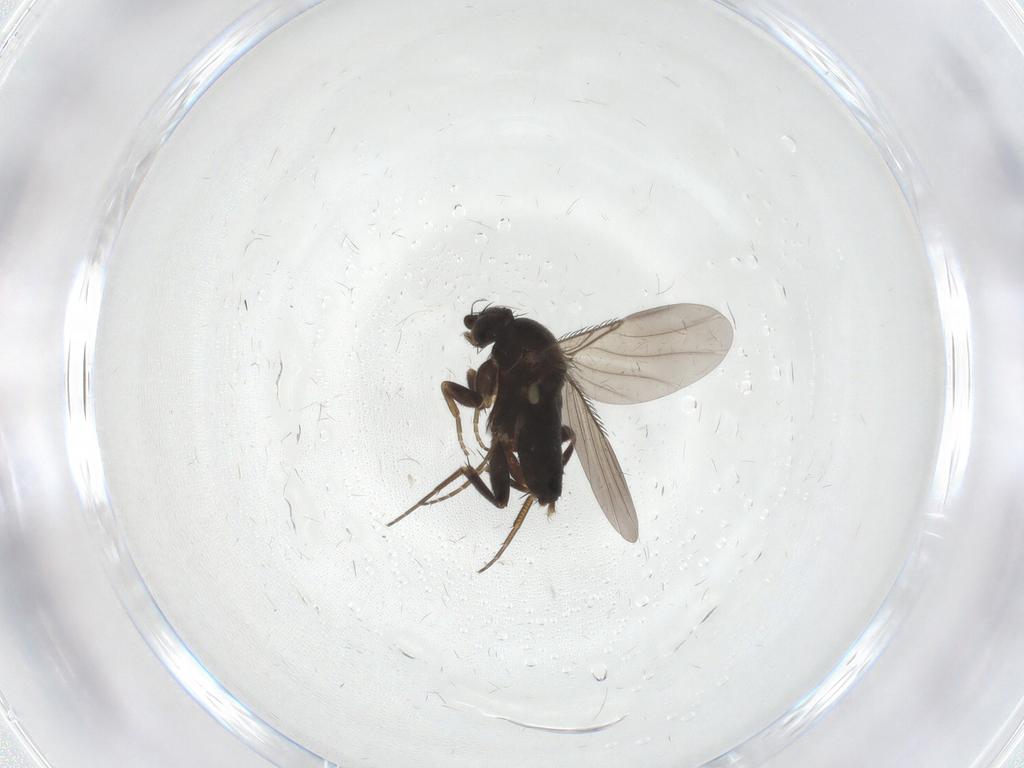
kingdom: Animalia
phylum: Arthropoda
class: Insecta
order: Diptera
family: Phoridae
